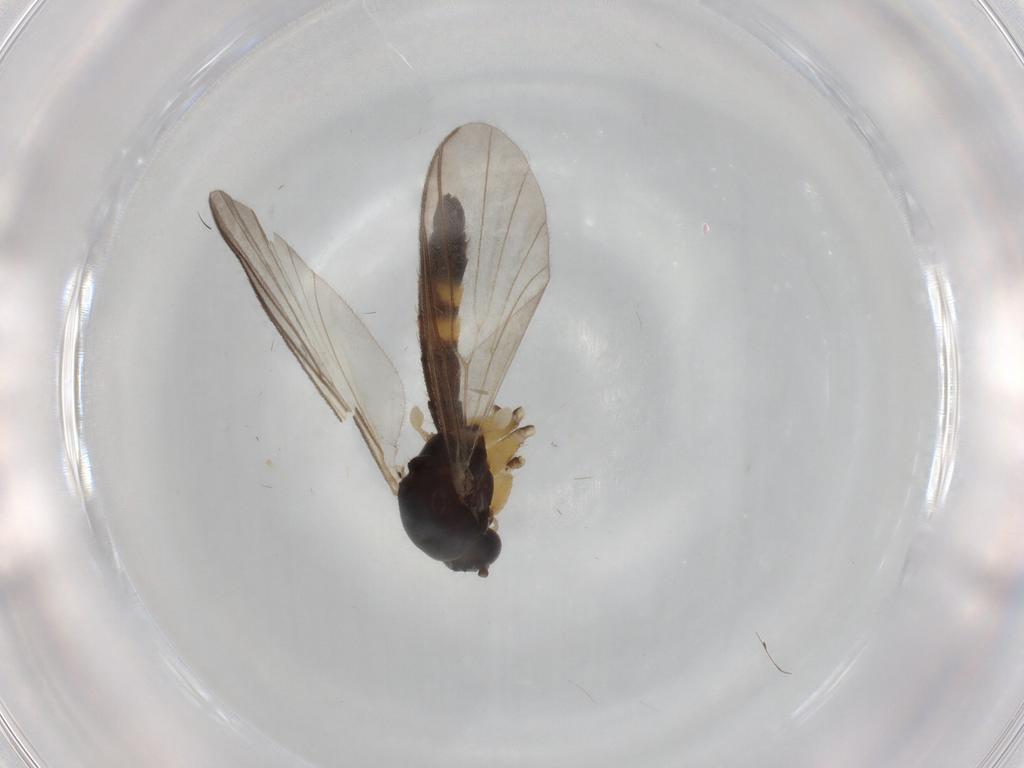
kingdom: Animalia
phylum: Arthropoda
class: Insecta
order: Diptera
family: Mycetophilidae
